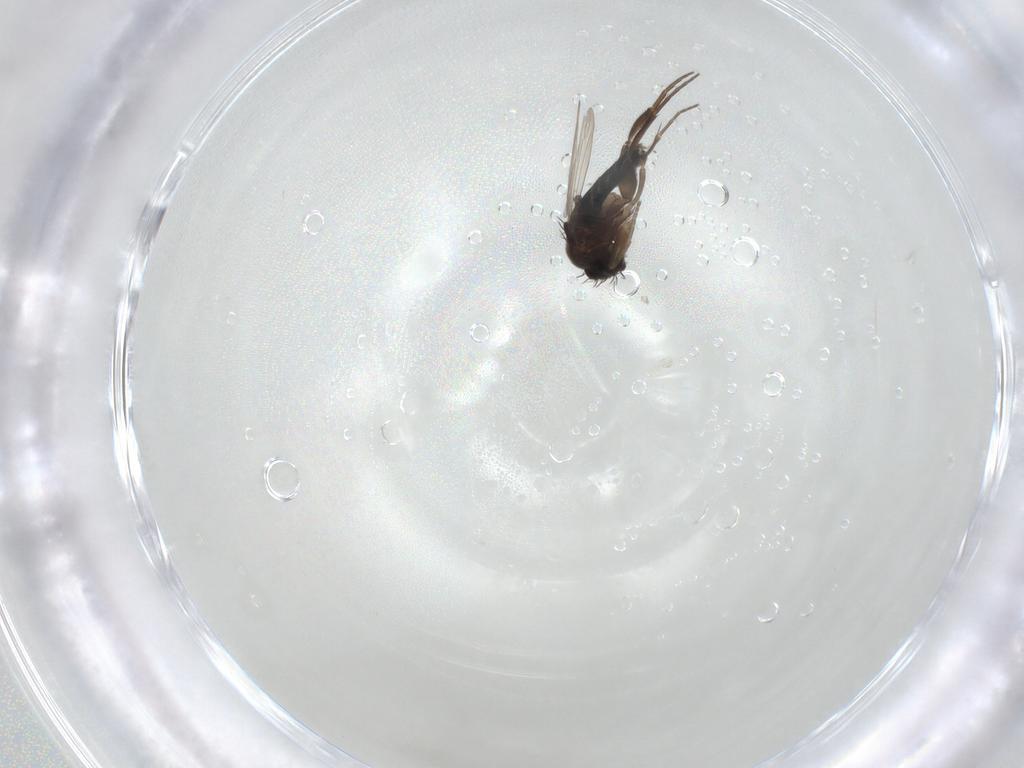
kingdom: Animalia
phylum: Arthropoda
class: Insecta
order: Diptera
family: Phoridae
